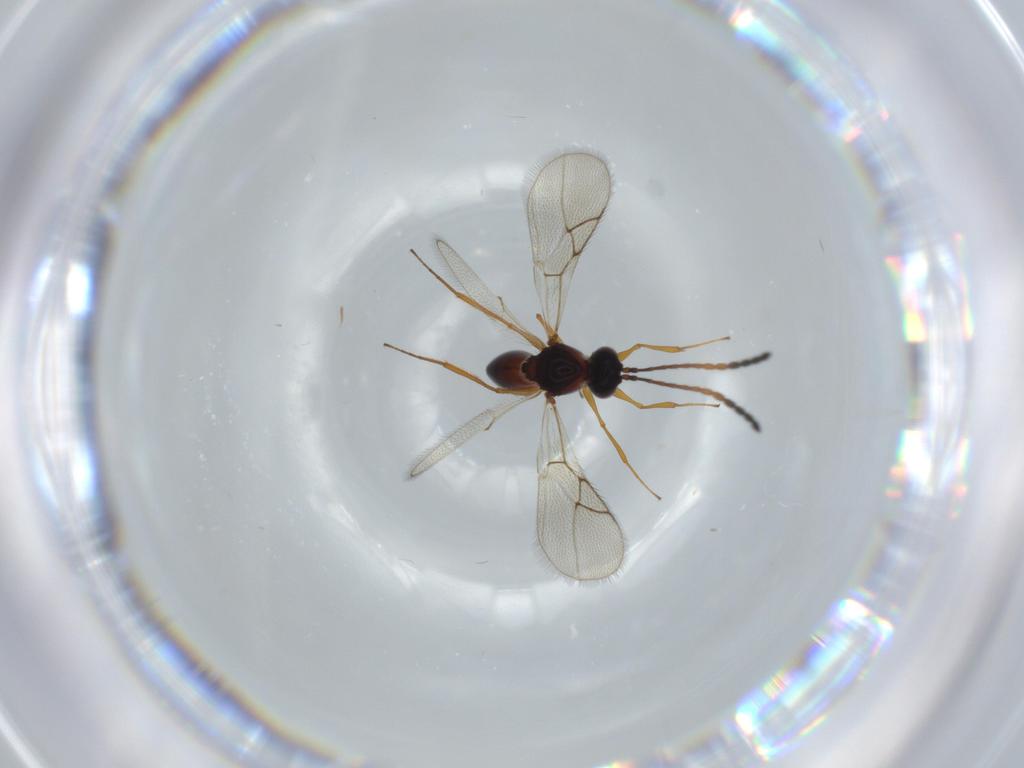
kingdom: Animalia
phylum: Arthropoda
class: Insecta
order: Hymenoptera
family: Figitidae
